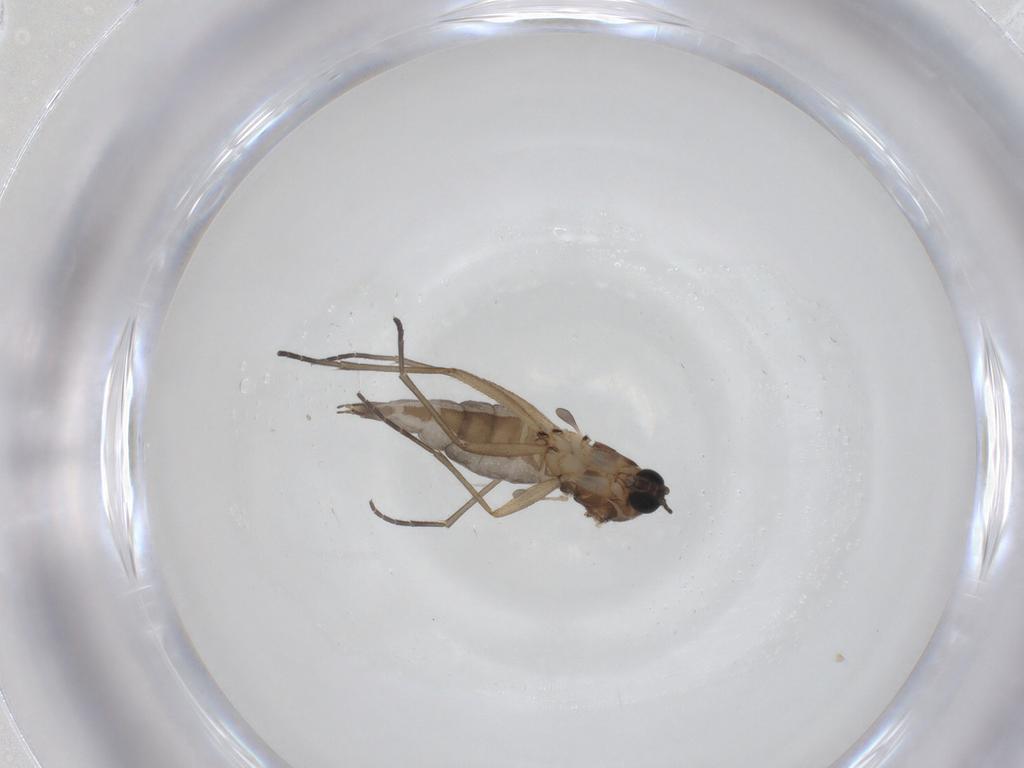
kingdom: Animalia
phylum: Arthropoda
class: Insecta
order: Diptera
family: Sciaridae
